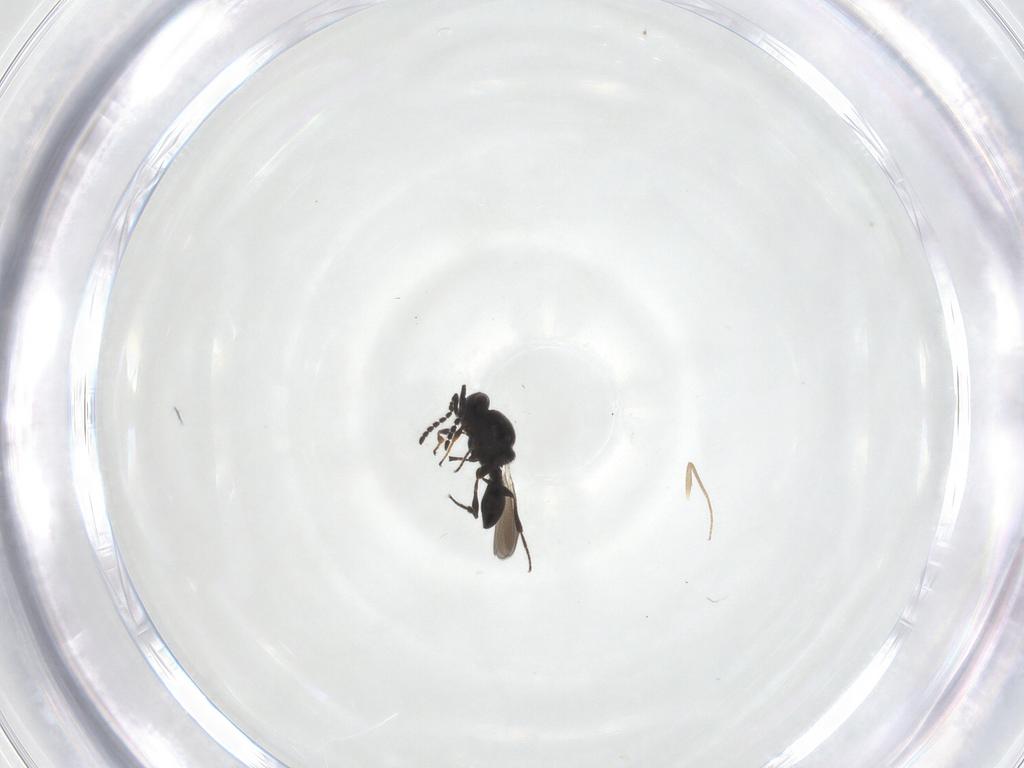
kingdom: Animalia
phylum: Arthropoda
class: Insecta
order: Hymenoptera
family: Platygastridae
